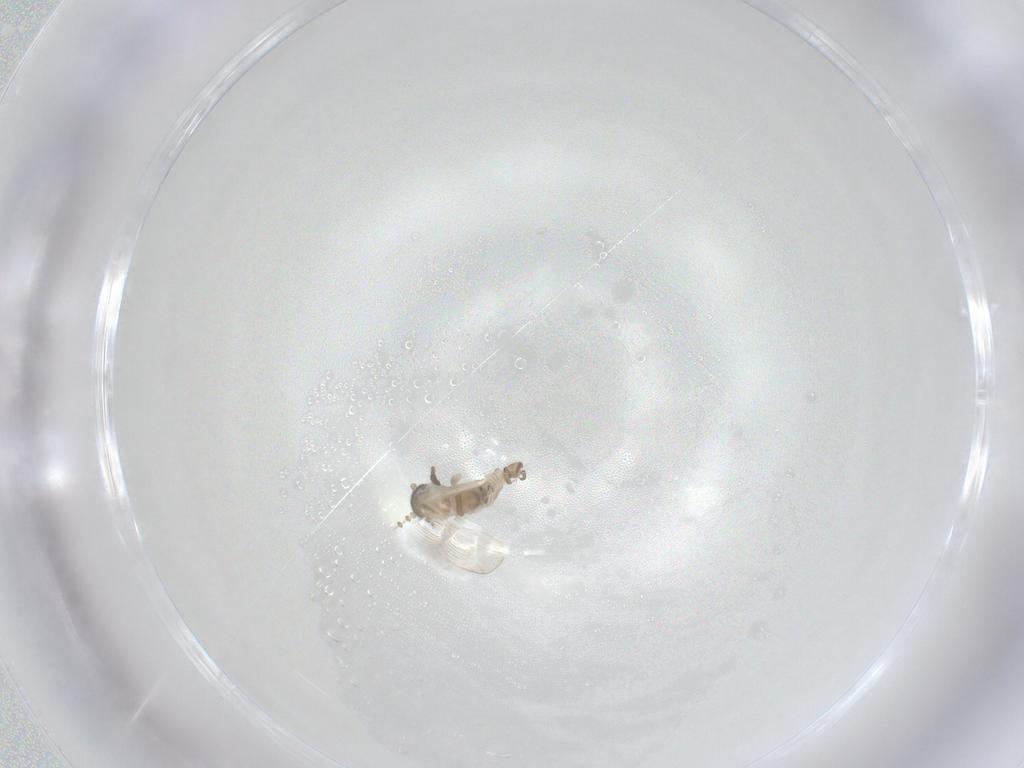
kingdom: Animalia
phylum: Arthropoda
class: Insecta
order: Diptera
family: Psychodidae
